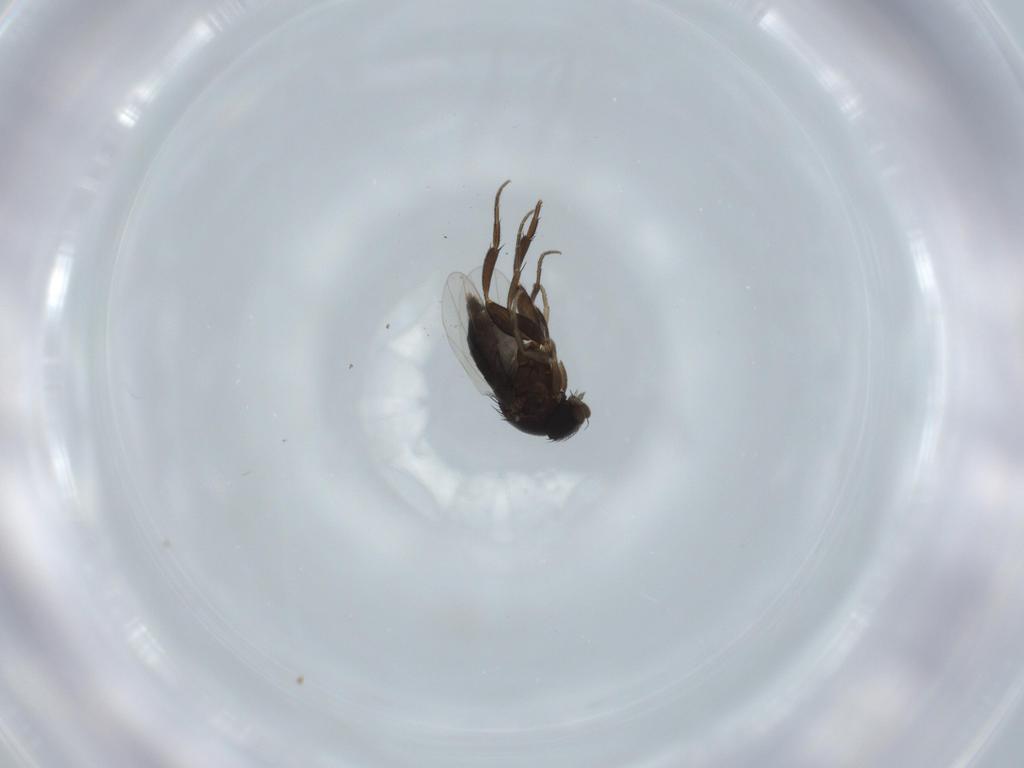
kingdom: Animalia
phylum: Arthropoda
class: Insecta
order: Diptera
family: Phoridae
